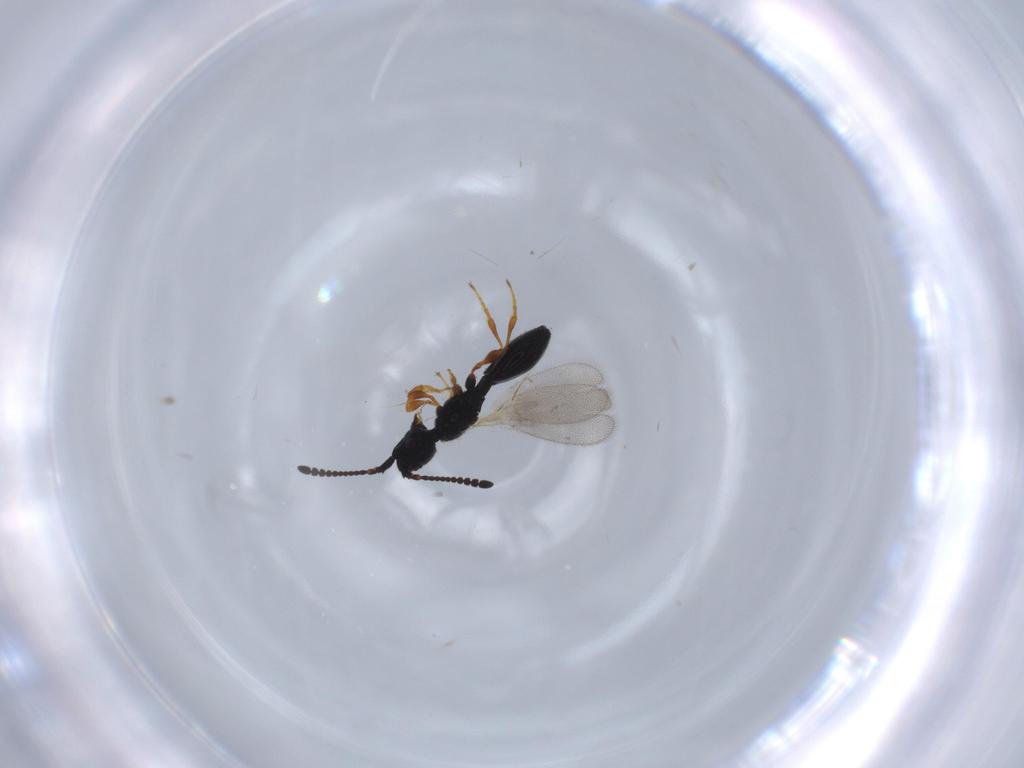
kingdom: Animalia
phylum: Arthropoda
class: Insecta
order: Hymenoptera
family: Diapriidae
